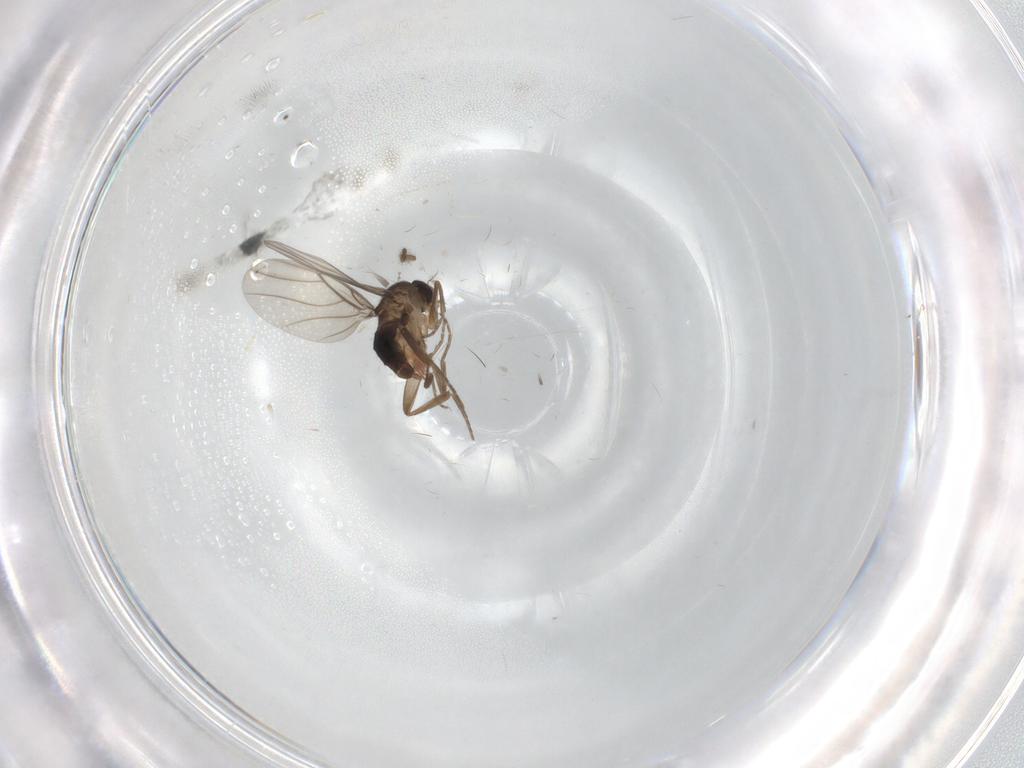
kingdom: Animalia
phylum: Arthropoda
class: Insecta
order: Diptera
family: Phoridae
